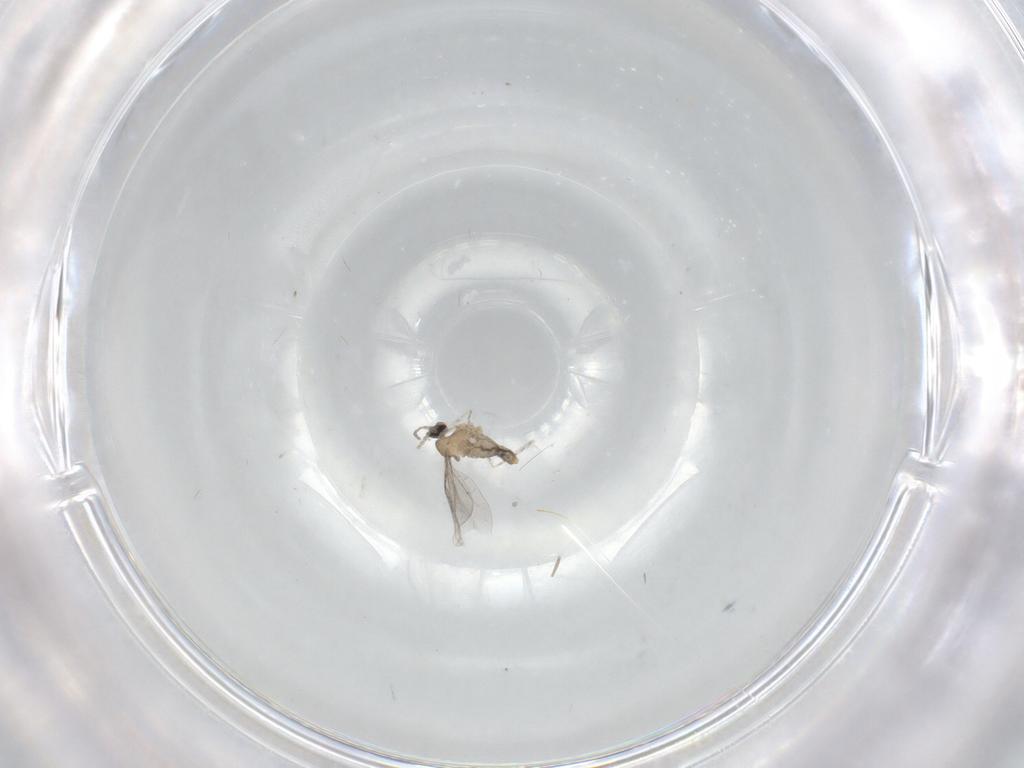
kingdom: Animalia
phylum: Arthropoda
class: Insecta
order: Diptera
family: Cecidomyiidae
